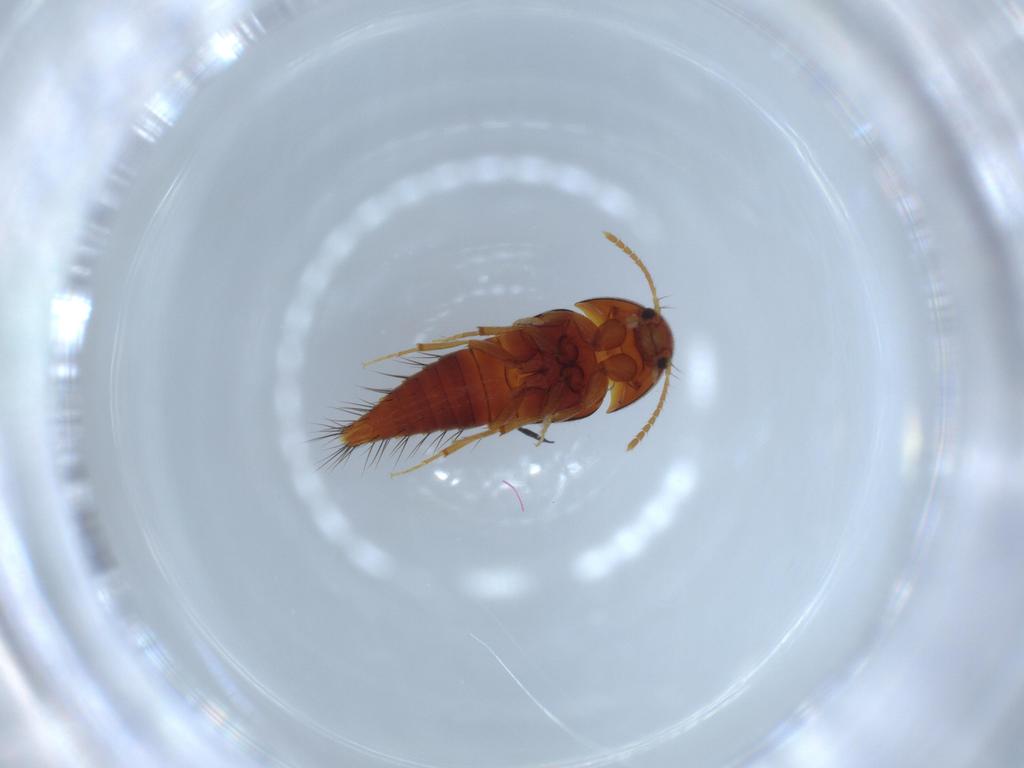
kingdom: Animalia
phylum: Arthropoda
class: Insecta
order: Coleoptera
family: Staphylinidae
